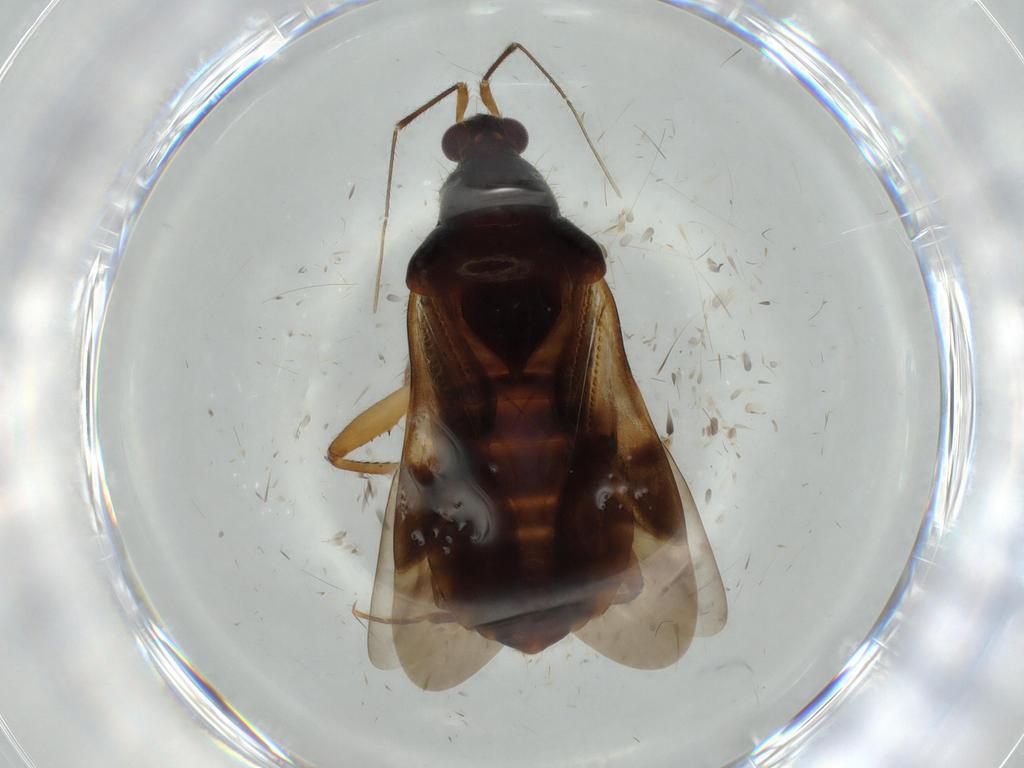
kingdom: Animalia
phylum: Arthropoda
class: Insecta
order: Hemiptera
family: Nabidae
